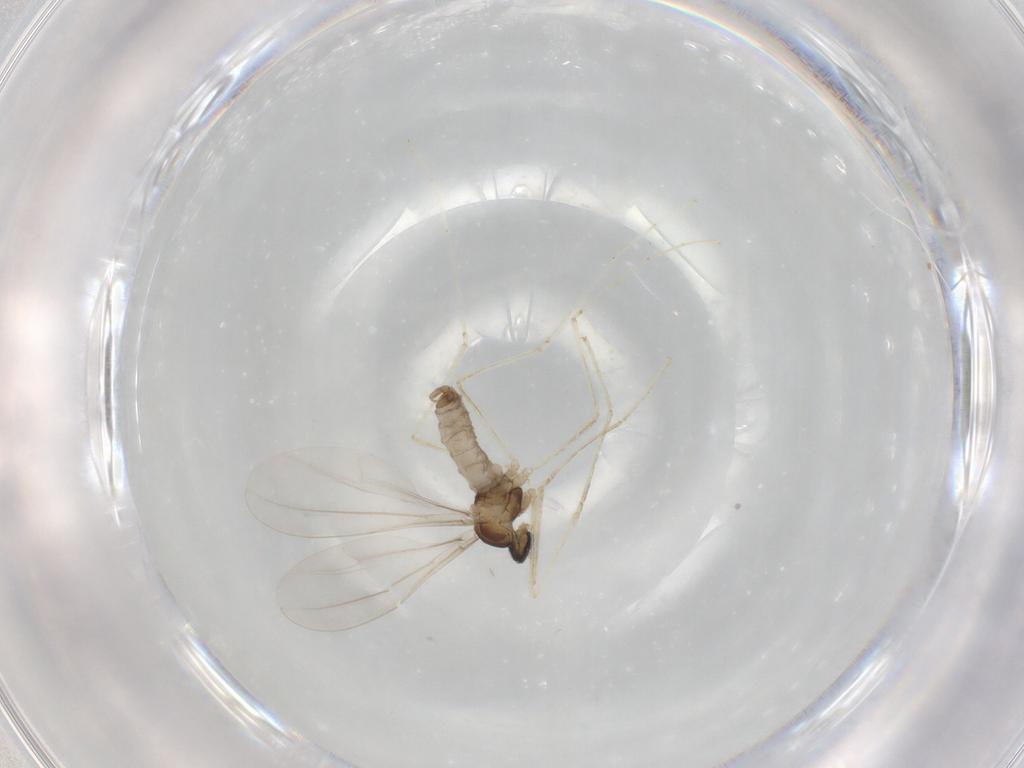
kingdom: Animalia
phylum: Arthropoda
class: Insecta
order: Diptera
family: Cecidomyiidae
